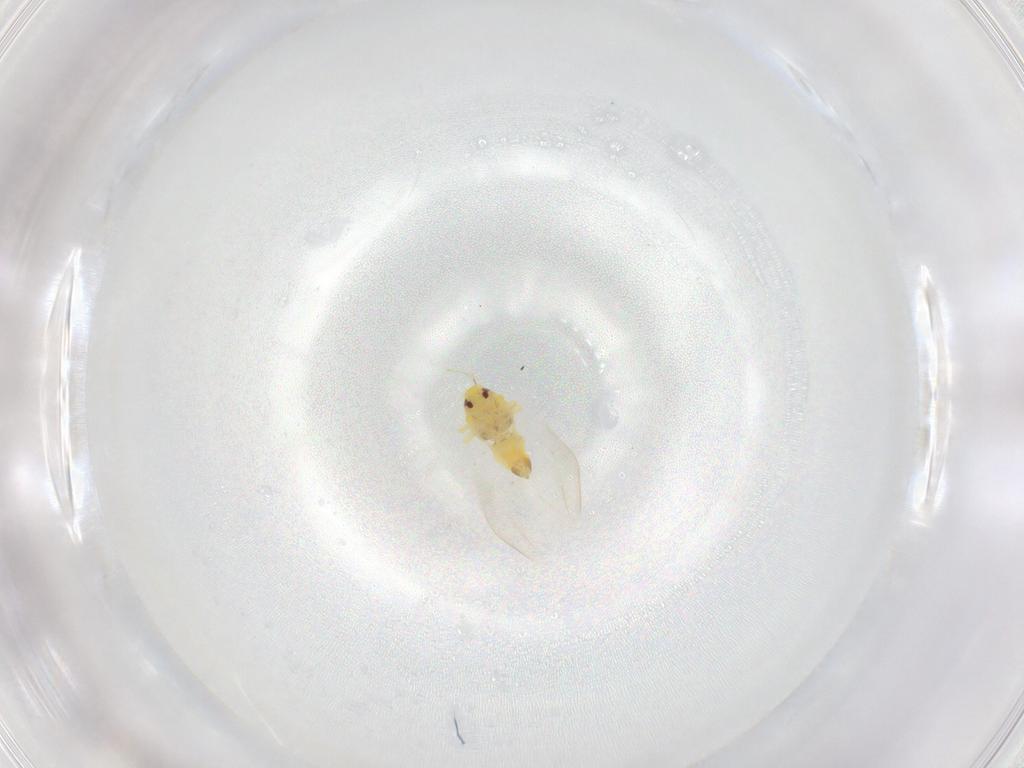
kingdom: Animalia
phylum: Arthropoda
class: Insecta
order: Hemiptera
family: Aleyrodidae
